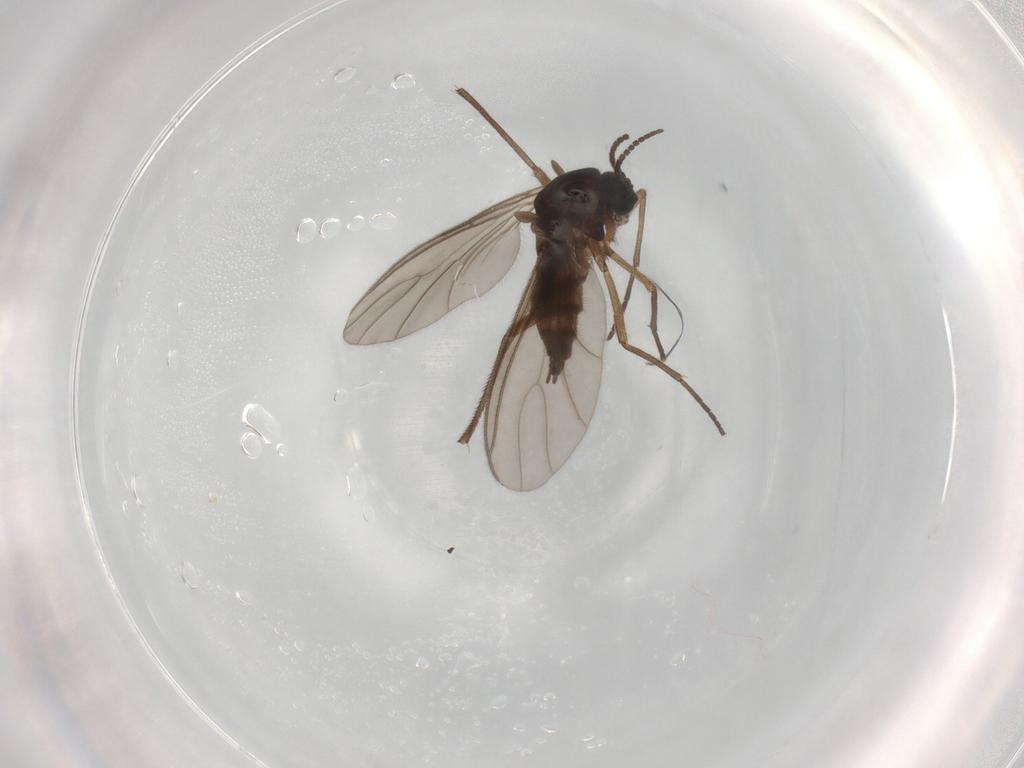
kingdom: Animalia
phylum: Arthropoda
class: Insecta
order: Diptera
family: Sciaridae
